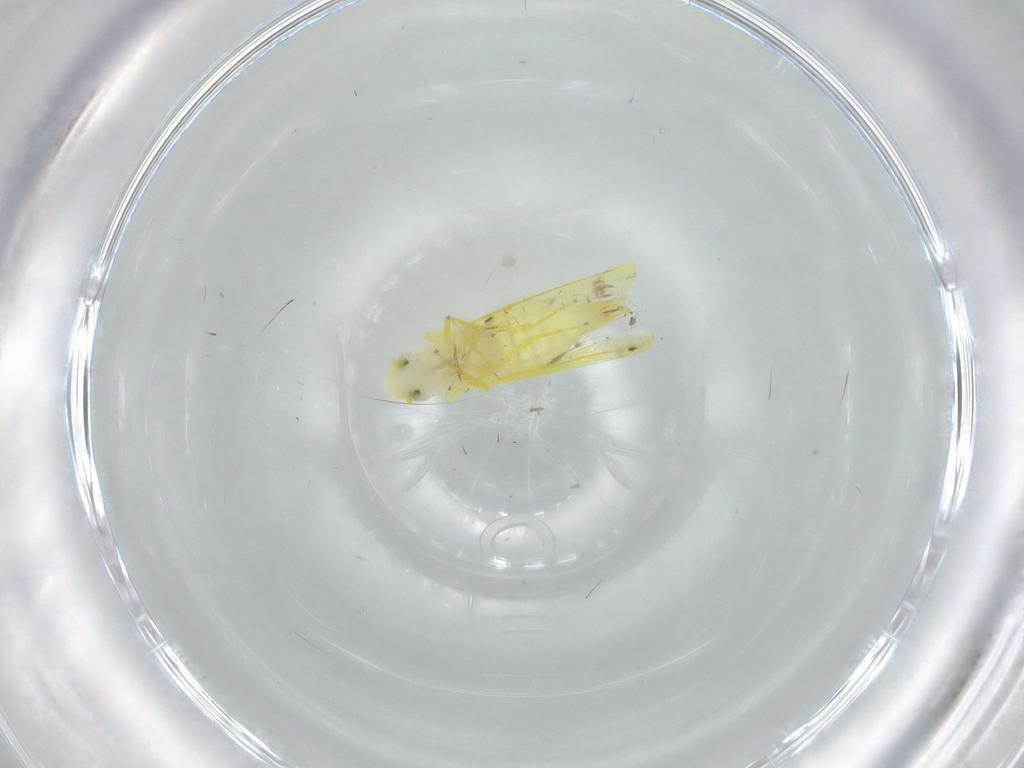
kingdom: Animalia
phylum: Arthropoda
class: Insecta
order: Hemiptera
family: Cicadellidae
